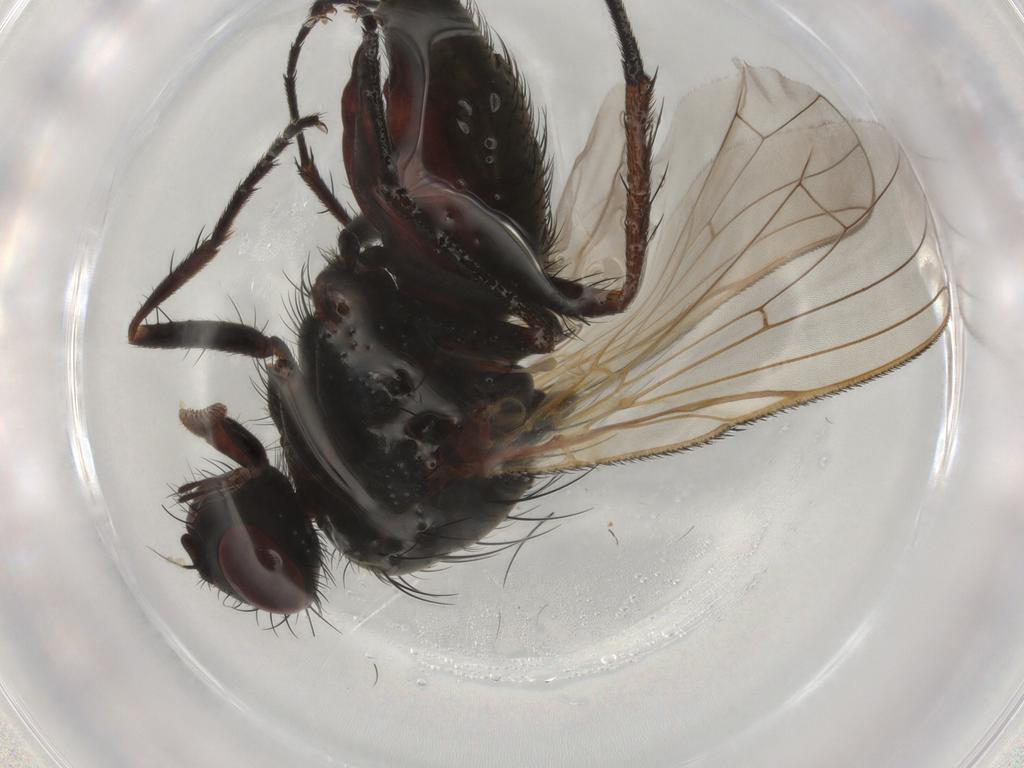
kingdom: Animalia
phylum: Arthropoda
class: Insecta
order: Diptera
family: Anthomyiidae
